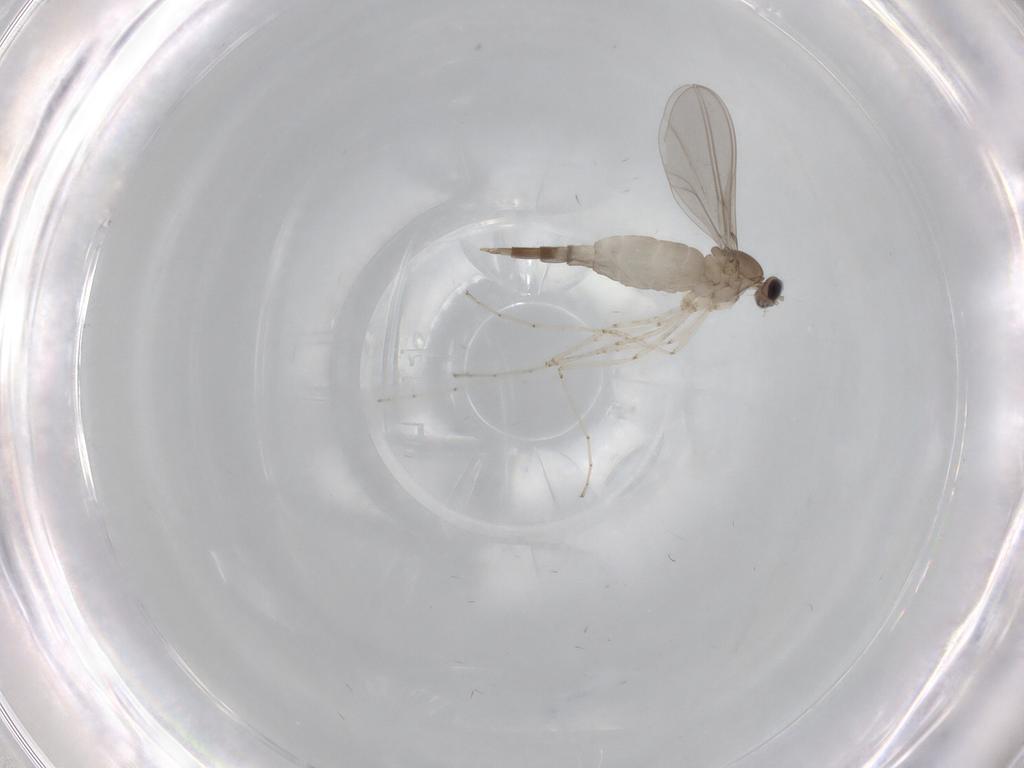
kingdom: Animalia
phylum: Arthropoda
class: Insecta
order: Diptera
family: Cecidomyiidae
